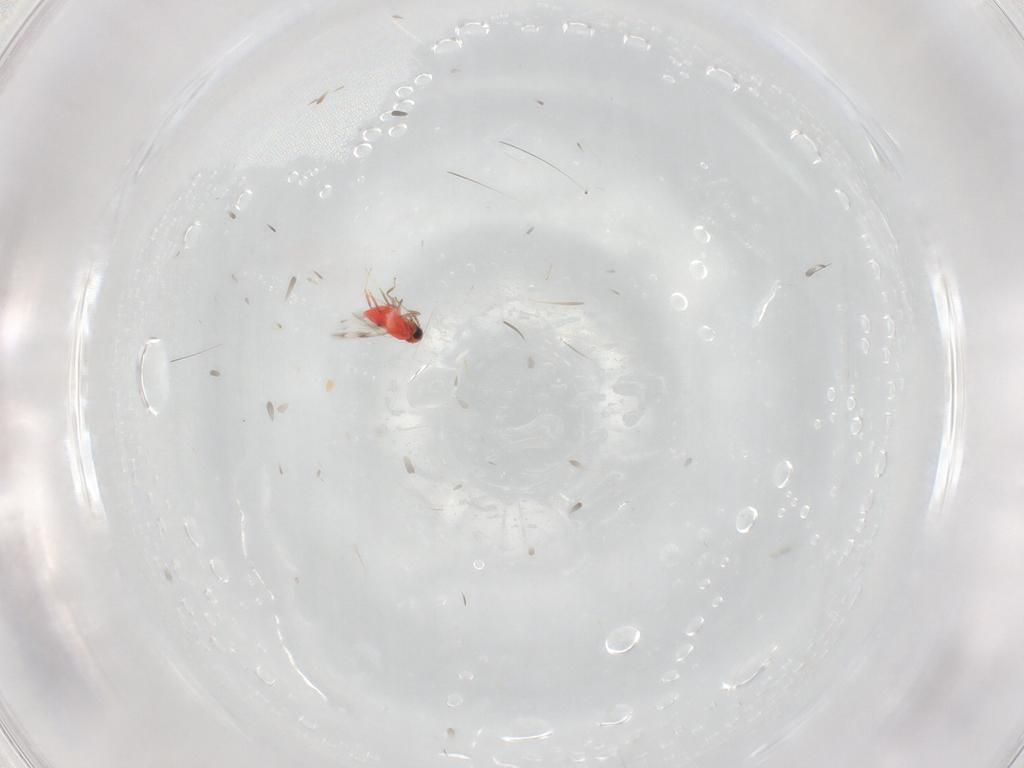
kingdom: Animalia
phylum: Arthropoda
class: Insecta
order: Hymenoptera
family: Trichogrammatidae
